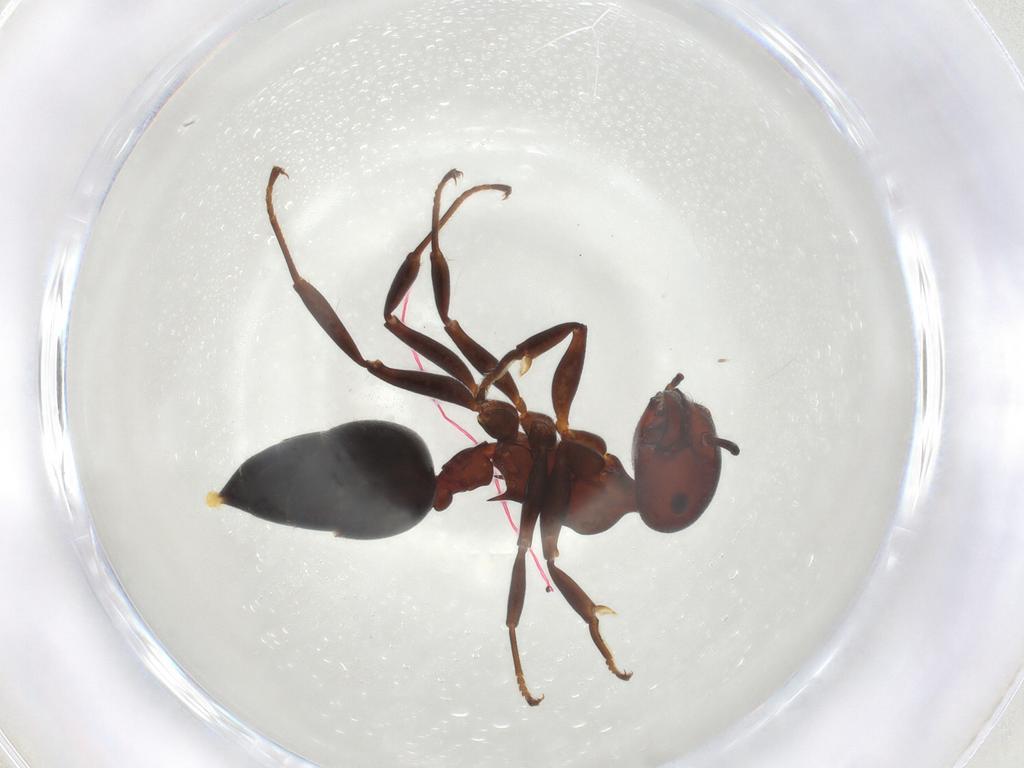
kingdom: Animalia
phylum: Arthropoda
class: Insecta
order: Hymenoptera
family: Formicidae
